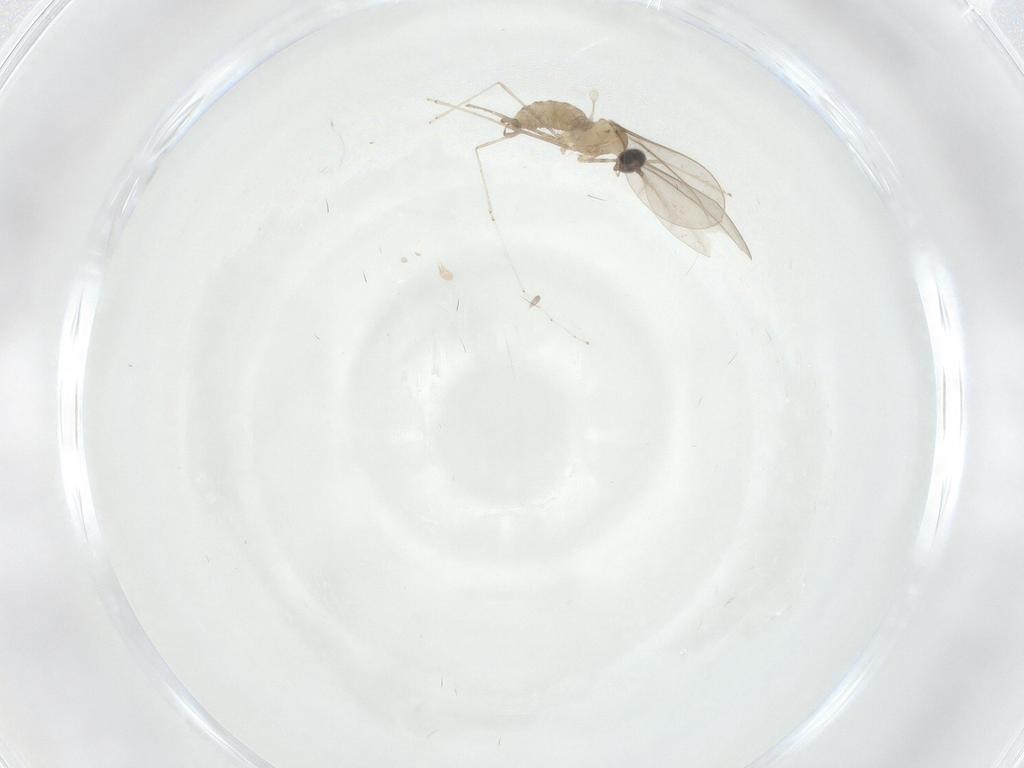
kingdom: Animalia
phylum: Arthropoda
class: Insecta
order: Diptera
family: Cecidomyiidae
